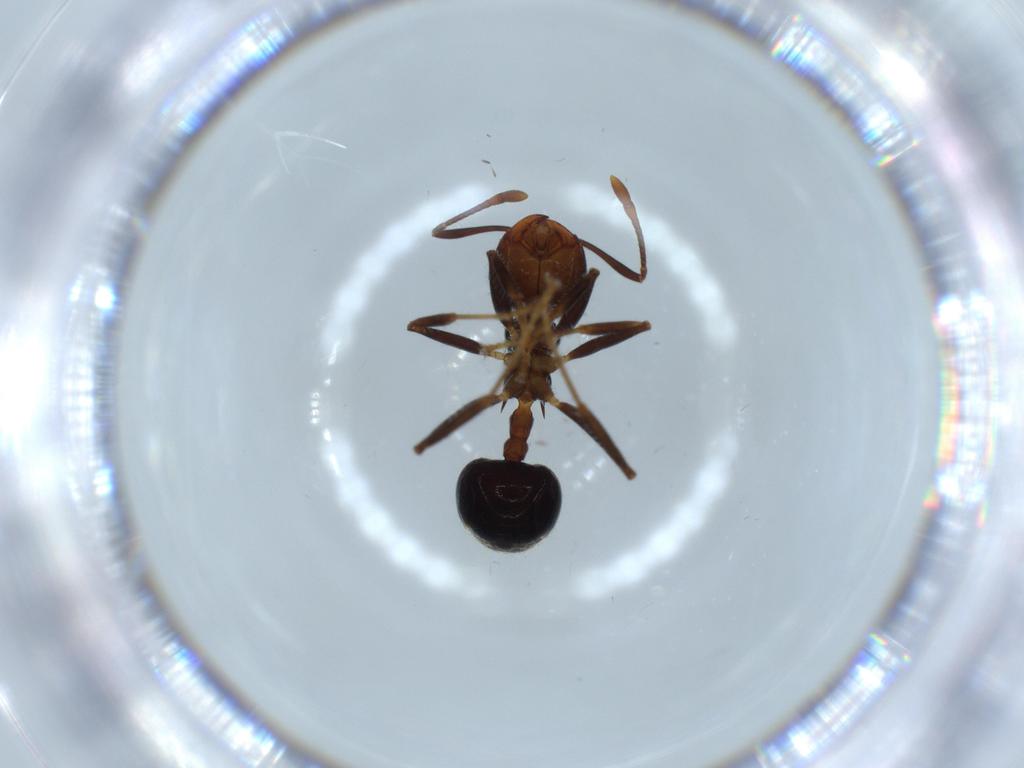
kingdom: Animalia
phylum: Arthropoda
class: Insecta
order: Hymenoptera
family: Formicidae
